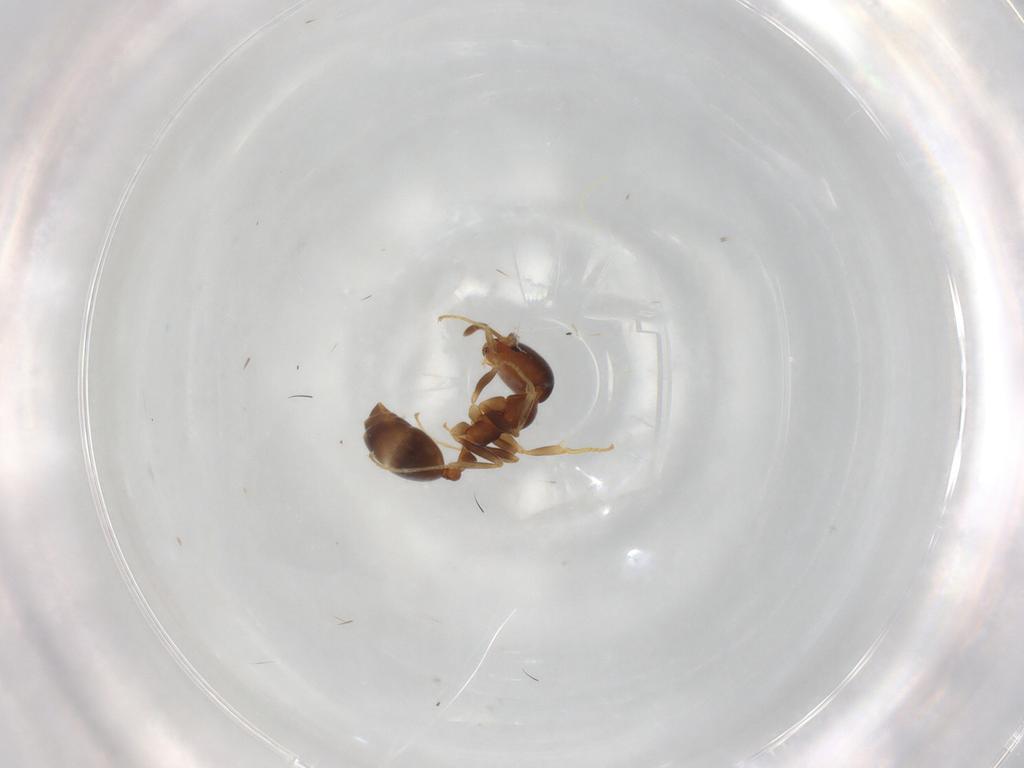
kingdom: Animalia
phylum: Arthropoda
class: Insecta
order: Hymenoptera
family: Formicidae
